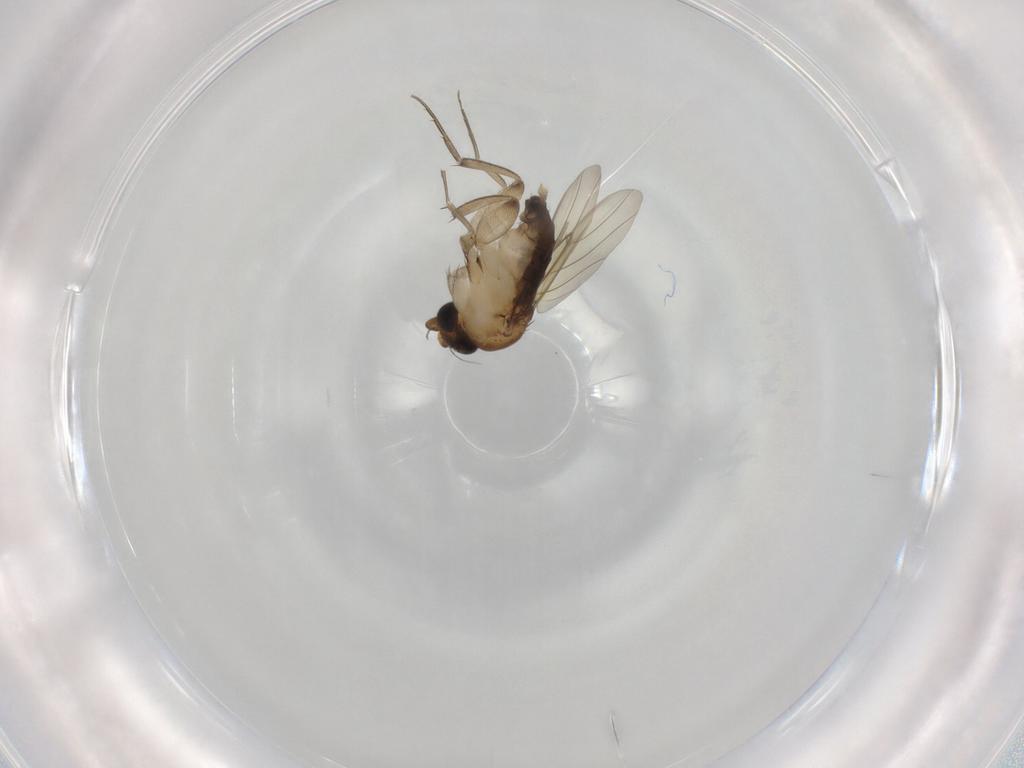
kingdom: Animalia
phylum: Arthropoda
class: Insecta
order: Diptera
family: Phoridae
